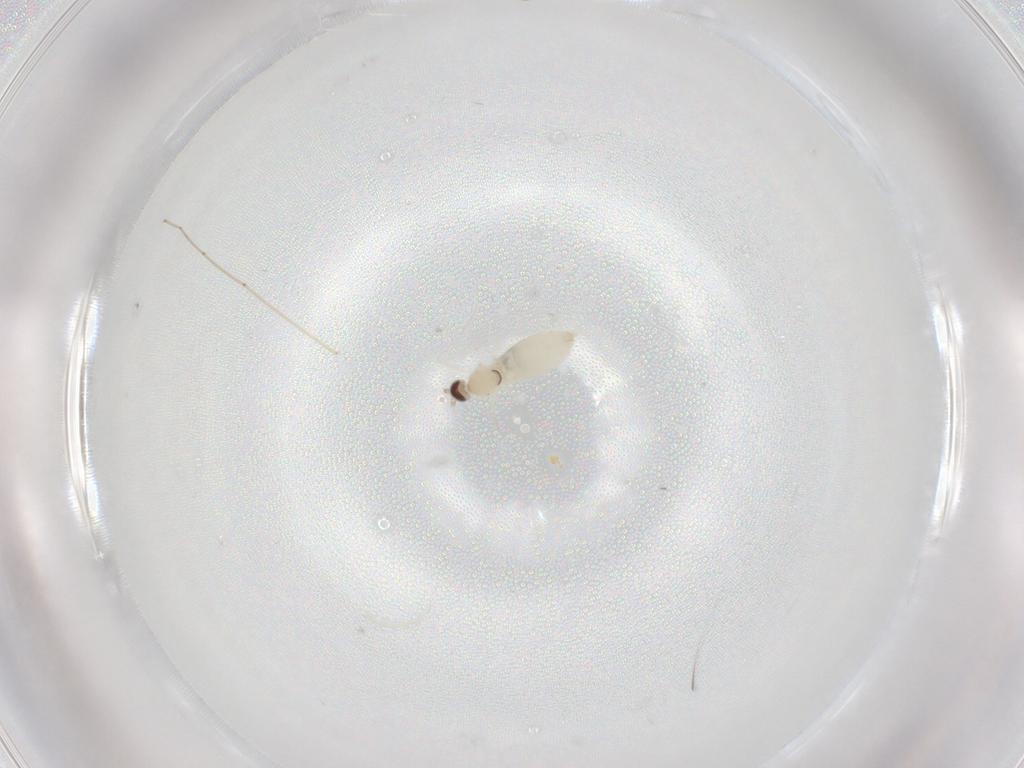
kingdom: Animalia
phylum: Arthropoda
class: Insecta
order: Diptera
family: Cecidomyiidae
